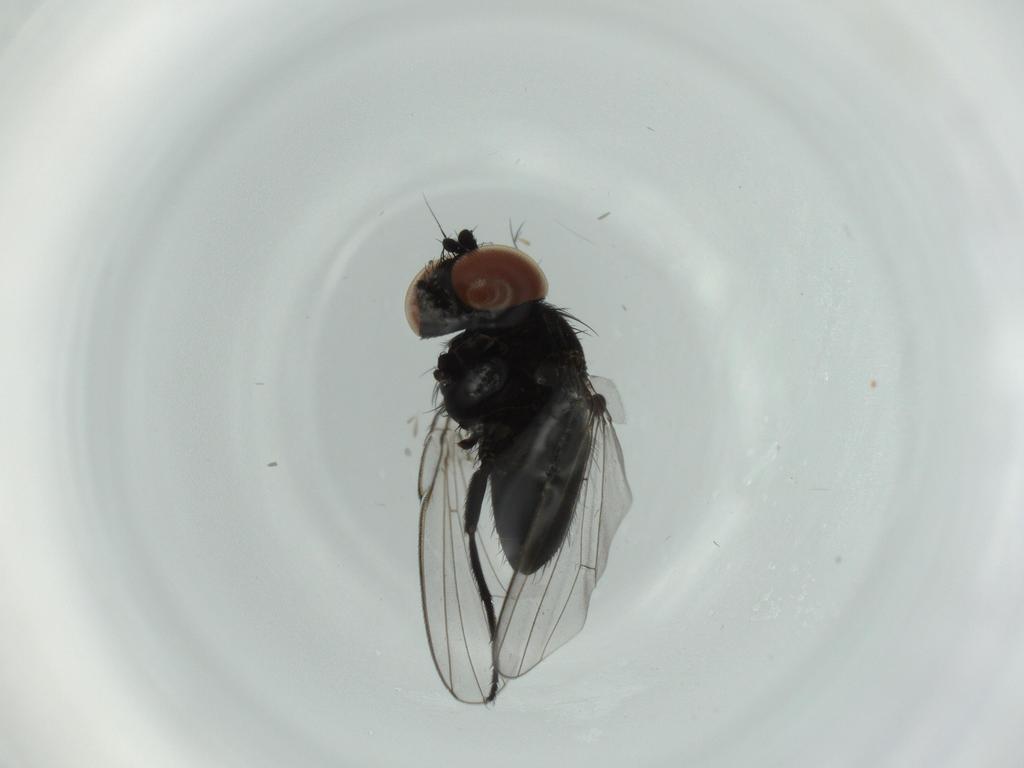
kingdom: Animalia
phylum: Arthropoda
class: Insecta
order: Diptera
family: Milichiidae
